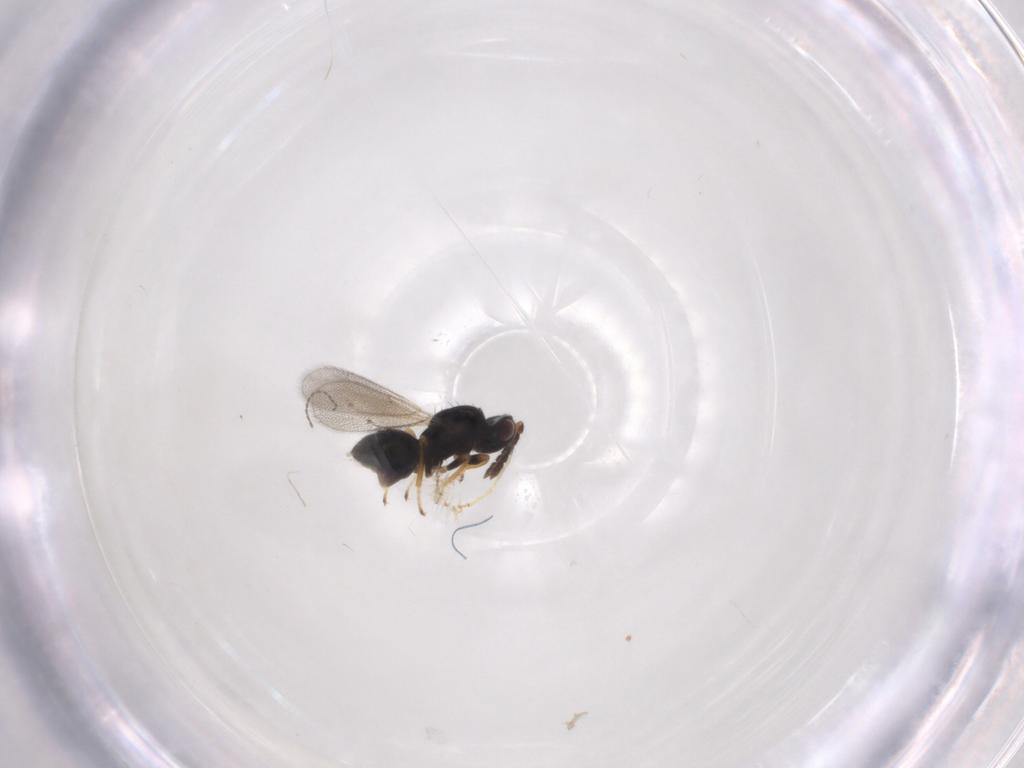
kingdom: Animalia
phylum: Arthropoda
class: Insecta
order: Hymenoptera
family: Eulophidae
